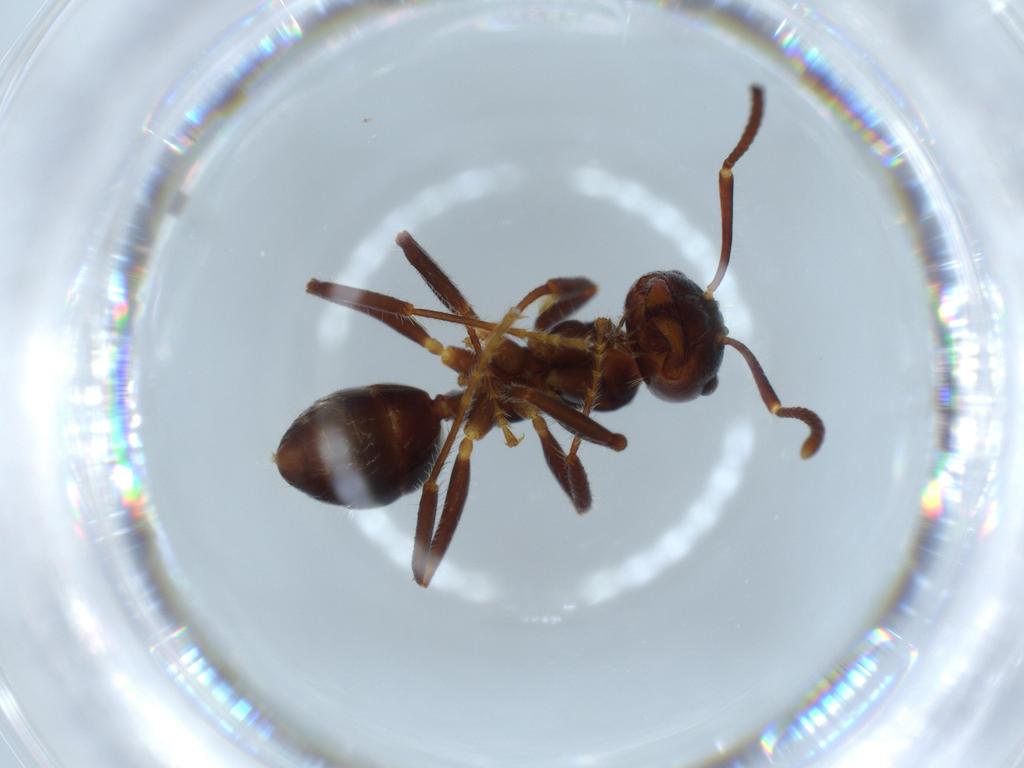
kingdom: Animalia
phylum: Arthropoda
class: Insecta
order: Hymenoptera
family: Formicidae
